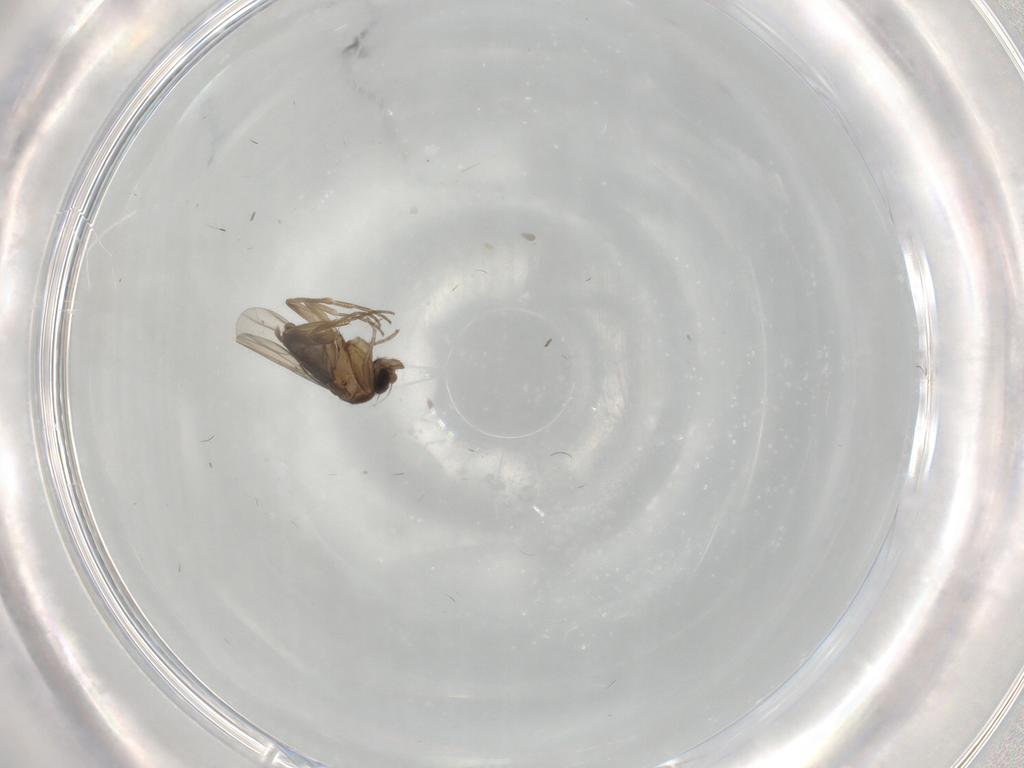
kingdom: Animalia
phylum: Arthropoda
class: Insecta
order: Diptera
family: Phoridae
